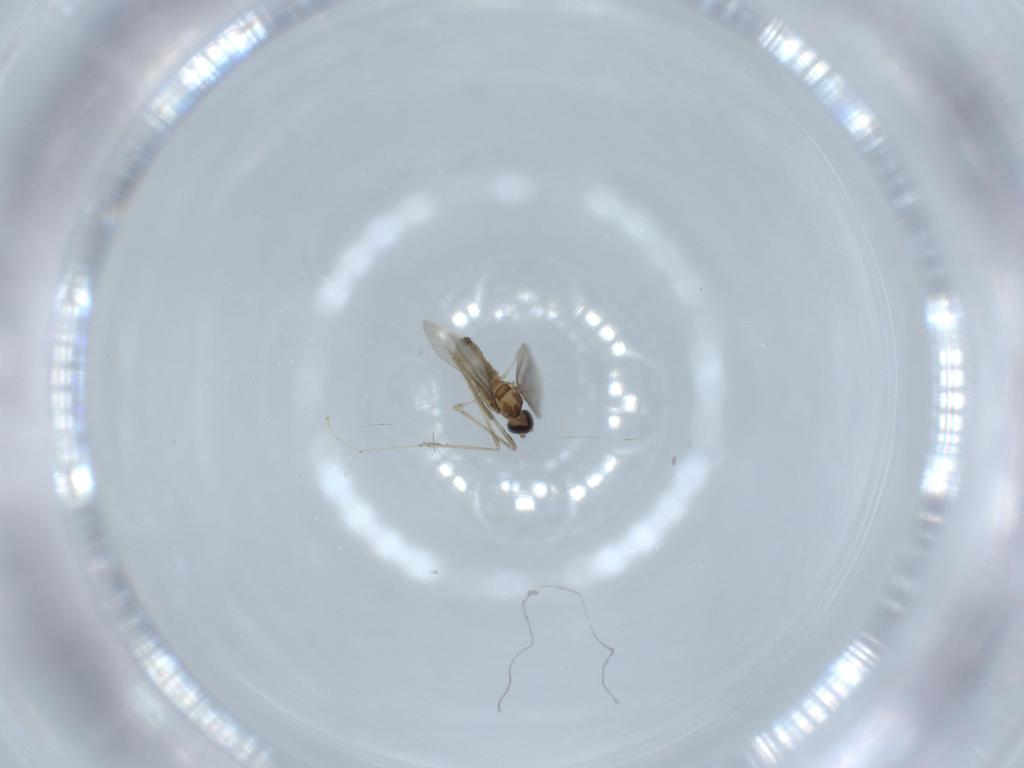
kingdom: Animalia
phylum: Arthropoda
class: Insecta
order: Diptera
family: Cecidomyiidae
